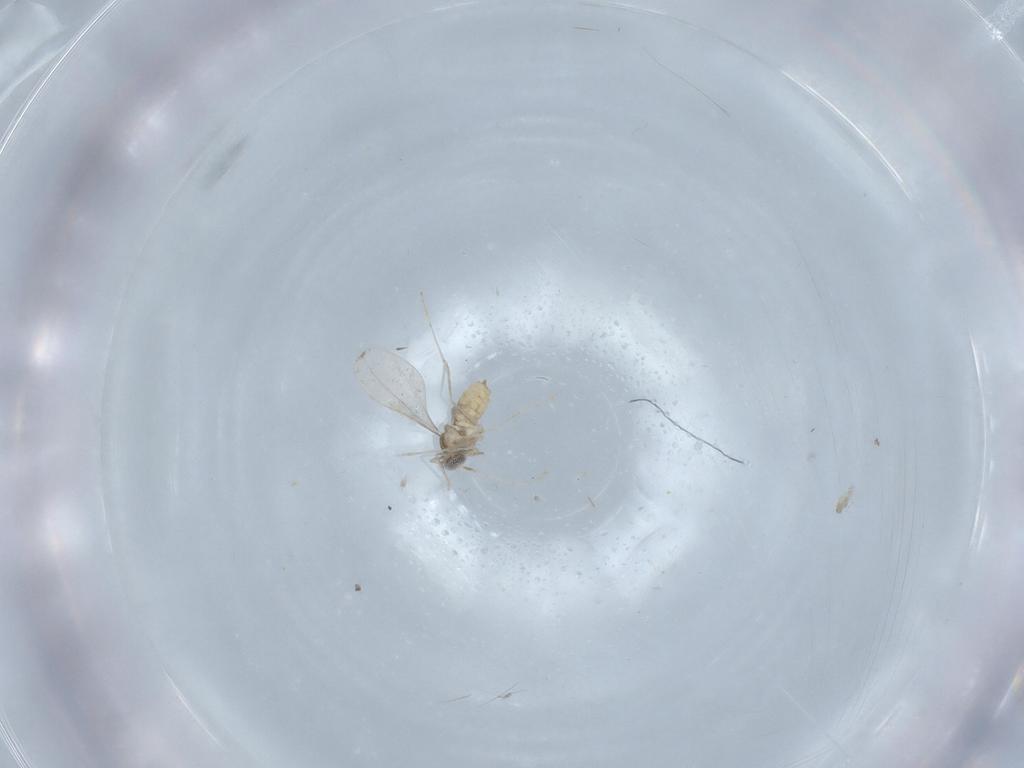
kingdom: Animalia
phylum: Arthropoda
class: Insecta
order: Diptera
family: Cecidomyiidae
